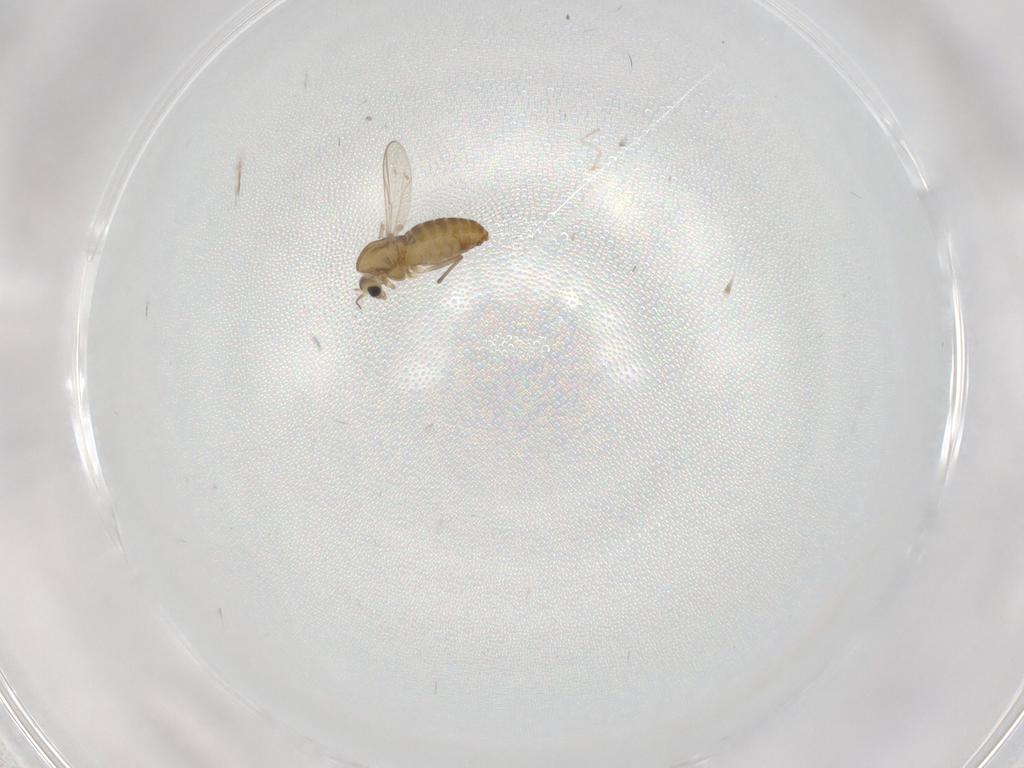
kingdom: Animalia
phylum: Arthropoda
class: Insecta
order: Diptera
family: Chironomidae
